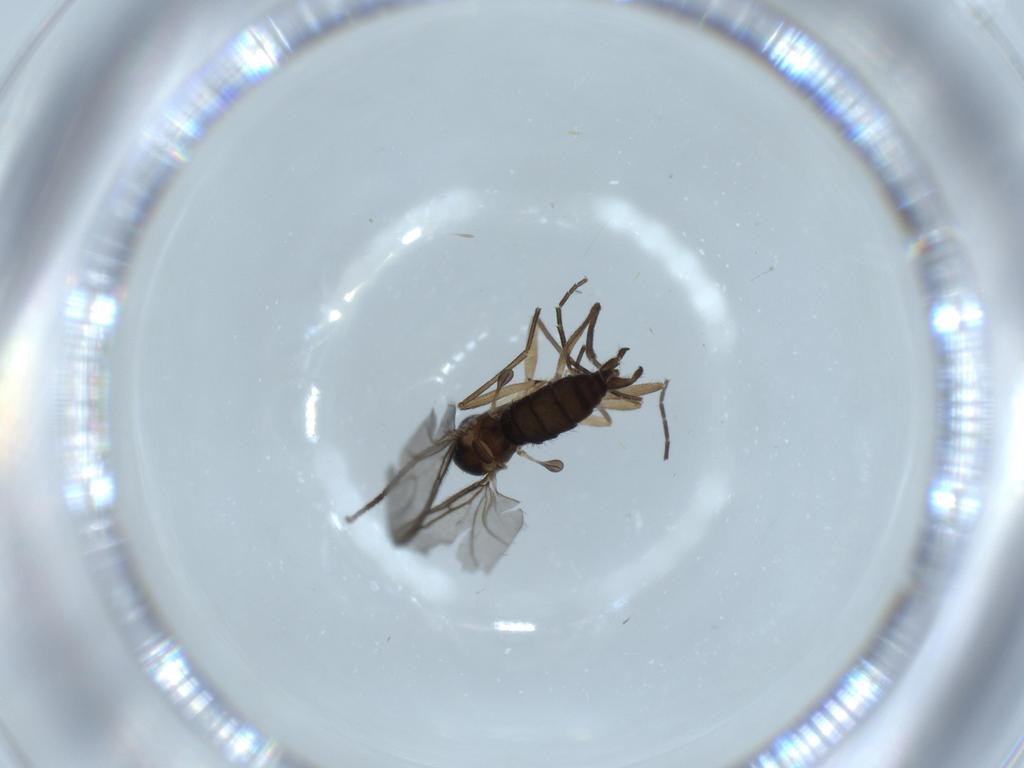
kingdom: Animalia
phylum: Arthropoda
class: Insecta
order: Diptera
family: Sciaridae
